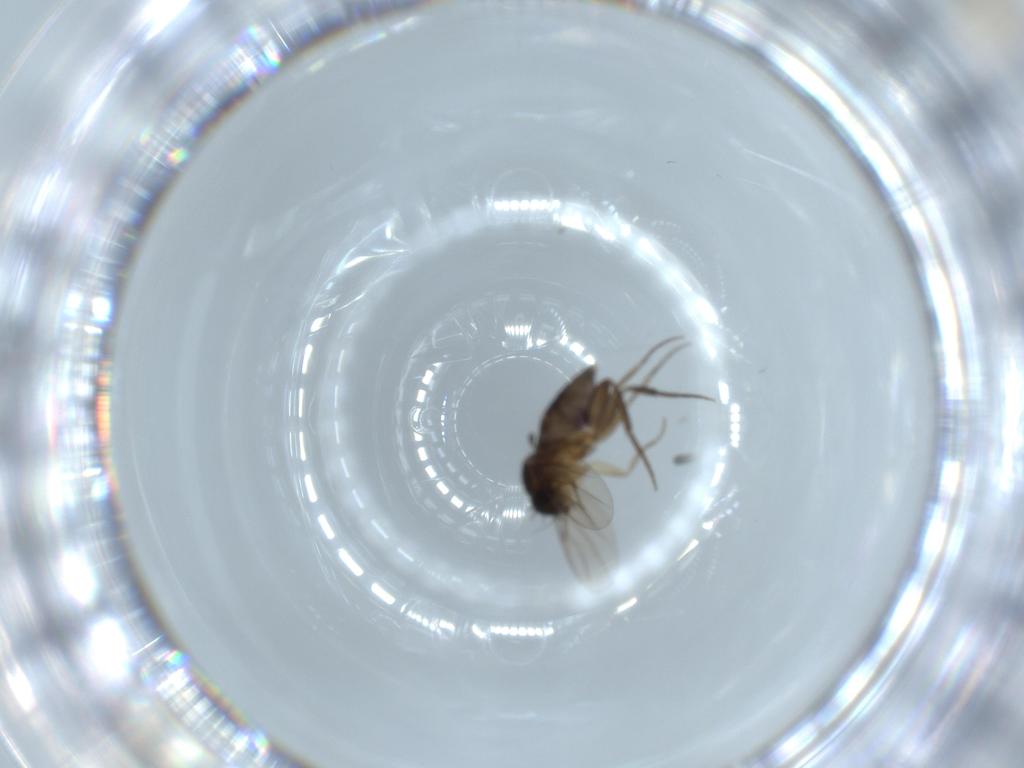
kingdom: Animalia
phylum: Arthropoda
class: Insecta
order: Diptera
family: Phoridae
